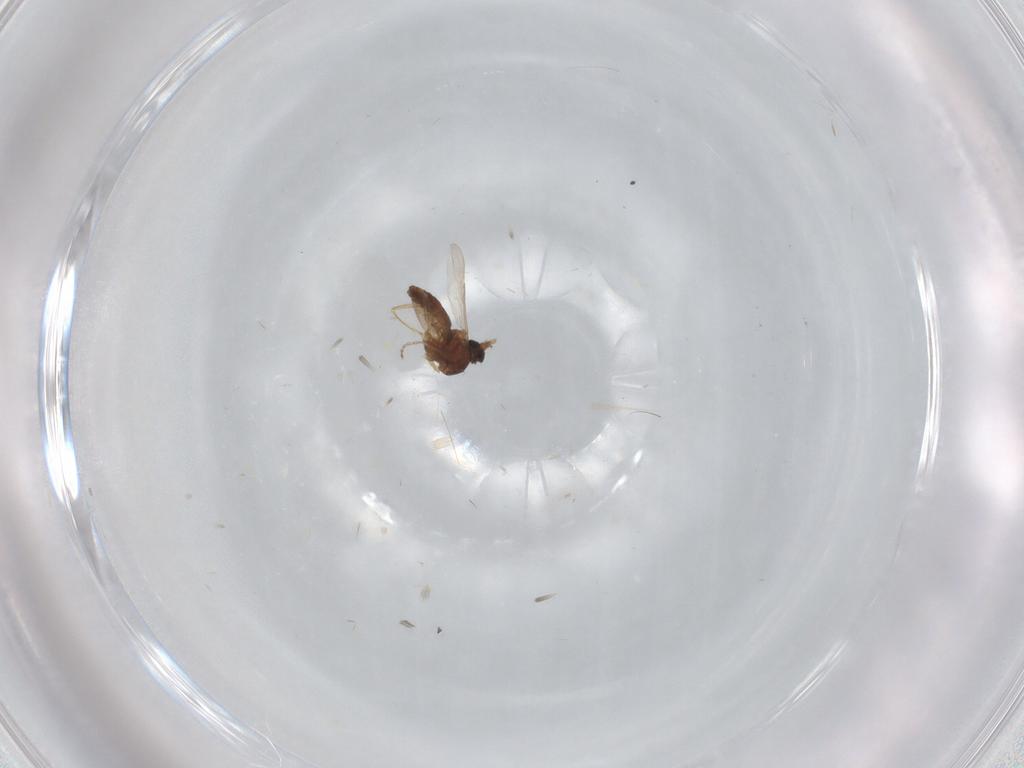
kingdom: Animalia
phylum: Arthropoda
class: Insecta
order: Diptera
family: Ceratopogonidae
